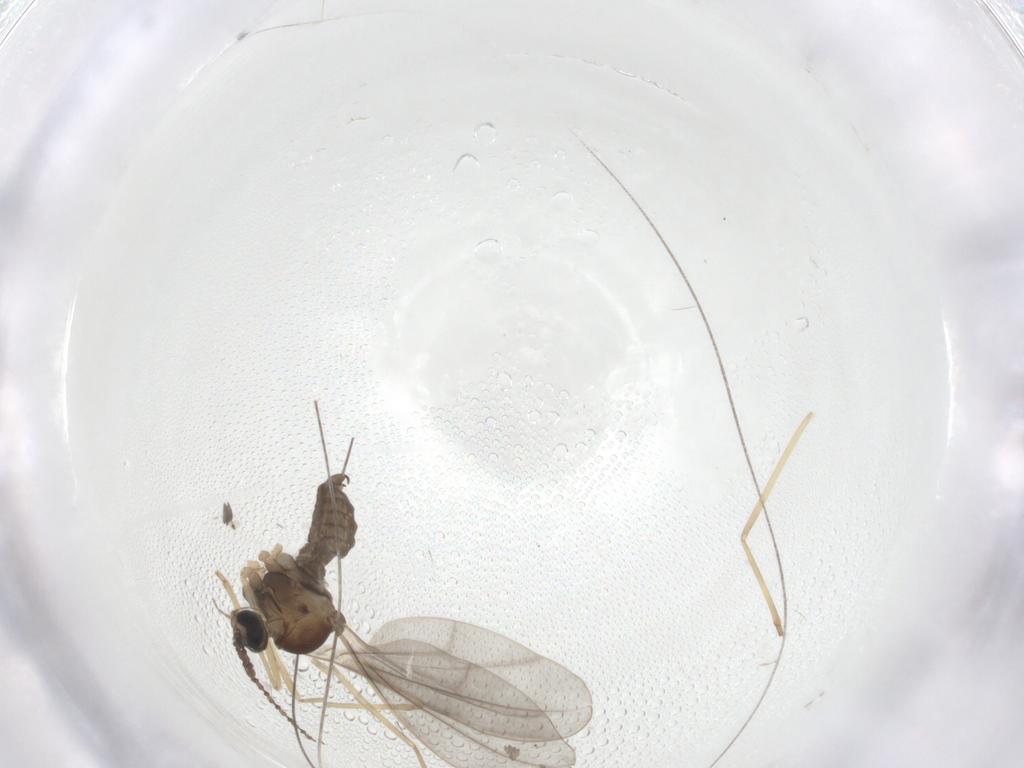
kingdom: Animalia
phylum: Arthropoda
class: Insecta
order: Diptera
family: Cecidomyiidae
